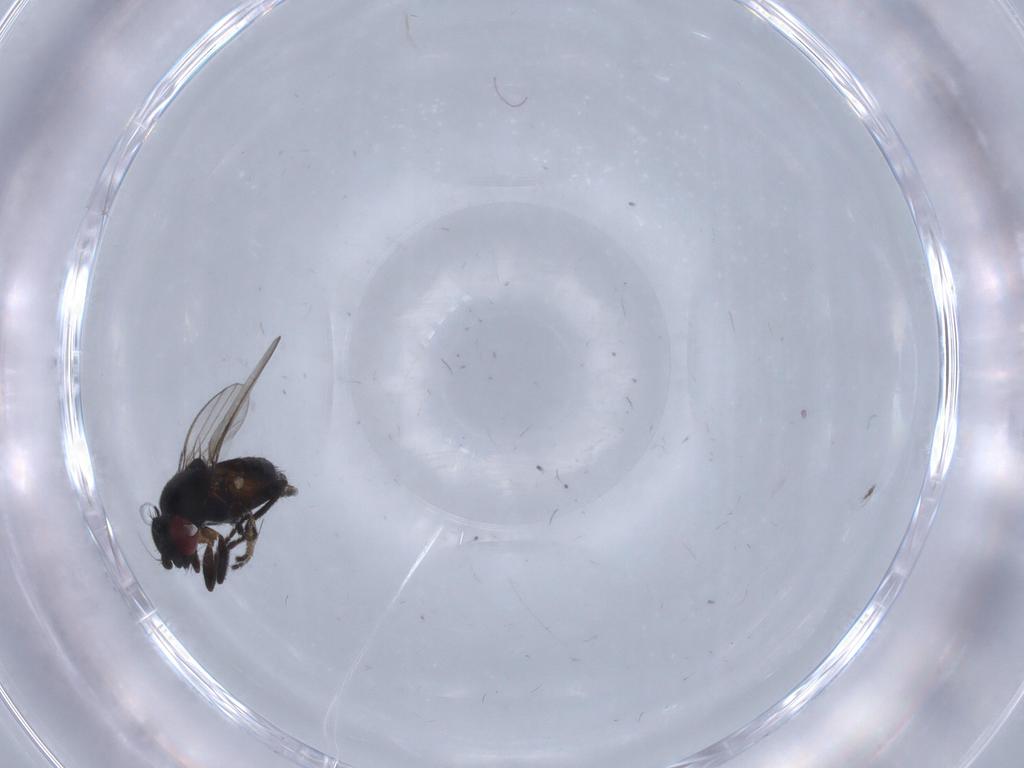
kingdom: Animalia
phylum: Arthropoda
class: Insecta
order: Diptera
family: Milichiidae
